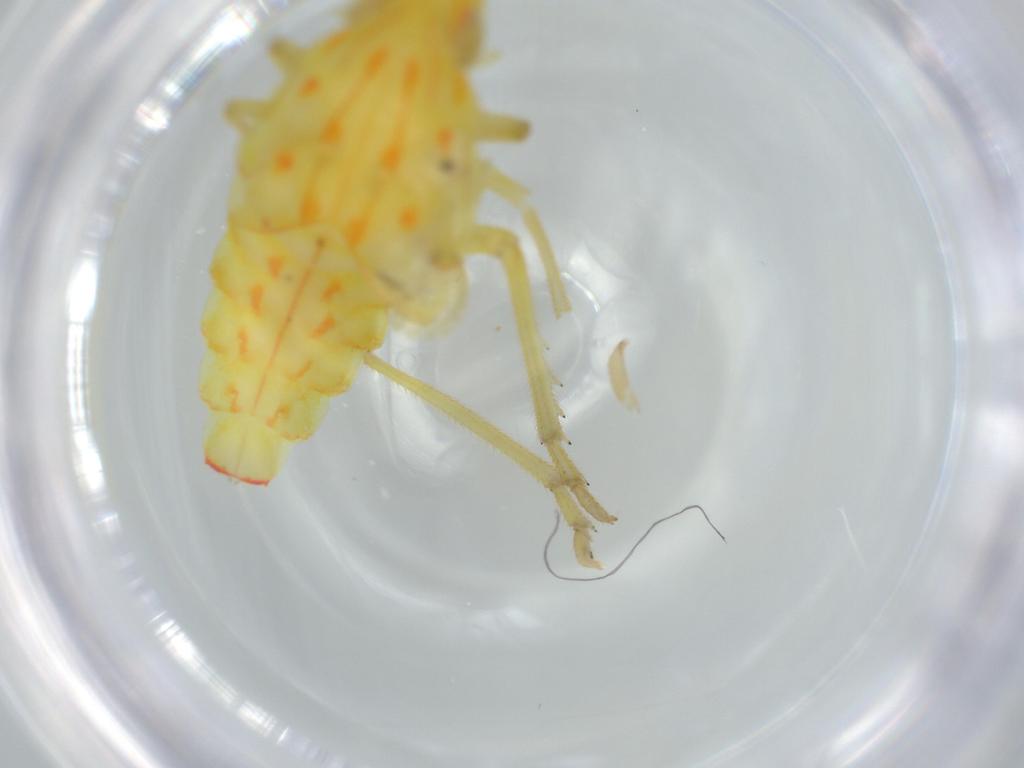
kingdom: Animalia
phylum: Arthropoda
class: Insecta
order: Hemiptera
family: Tropiduchidae
